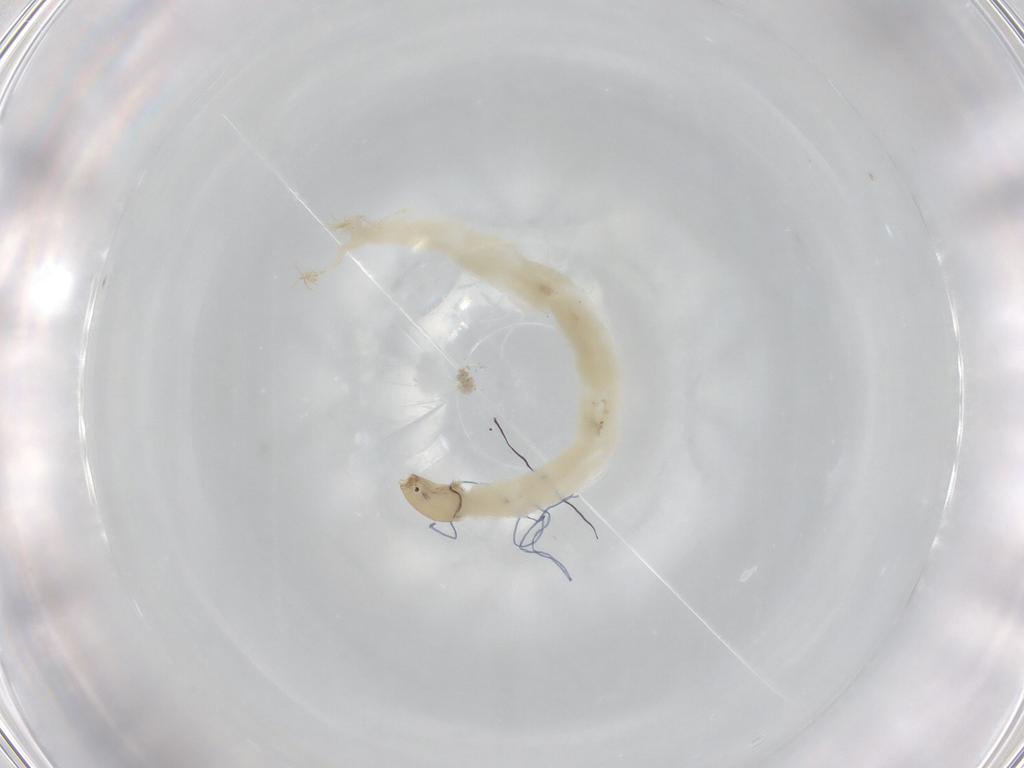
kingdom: Animalia
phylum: Arthropoda
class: Insecta
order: Diptera
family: Chironomidae
